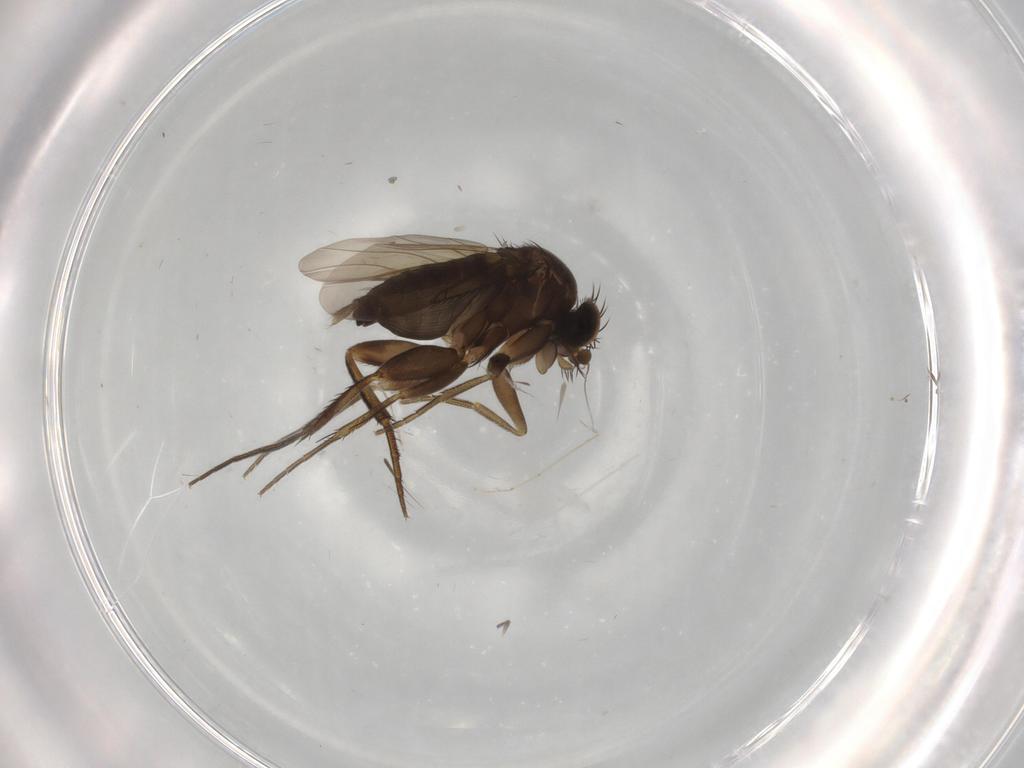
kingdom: Animalia
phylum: Arthropoda
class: Insecta
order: Diptera
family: Phoridae
